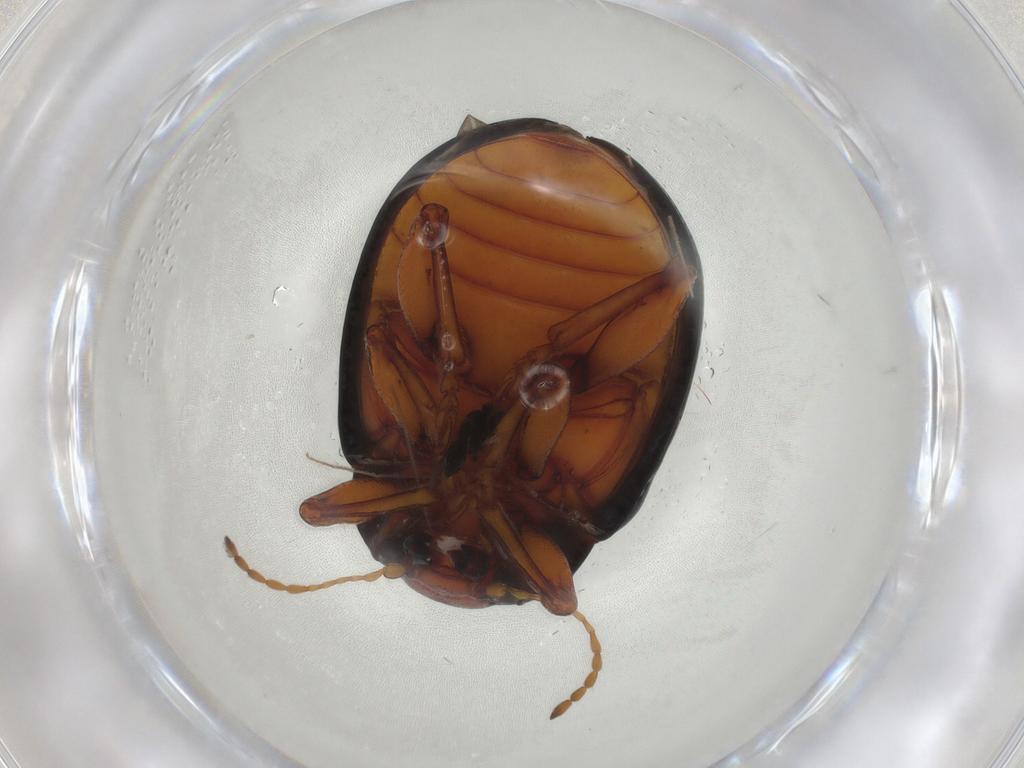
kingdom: Animalia
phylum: Arthropoda
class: Insecta
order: Coleoptera
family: Chrysomelidae
